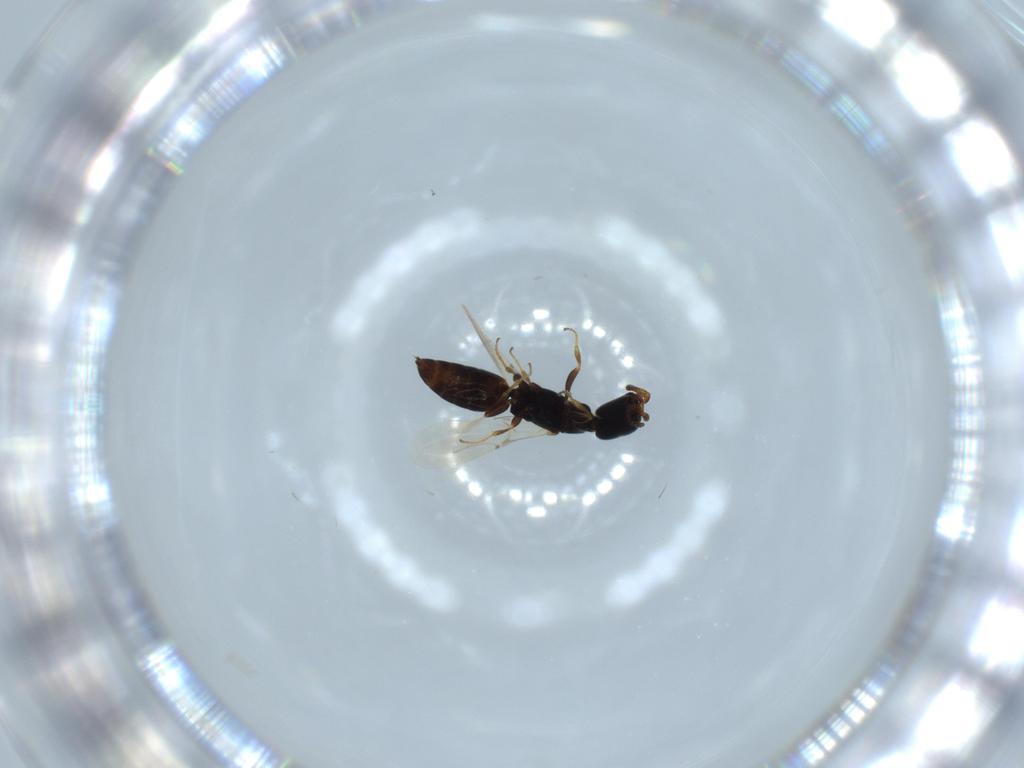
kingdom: Animalia
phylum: Arthropoda
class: Insecta
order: Hymenoptera
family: Bethylidae
